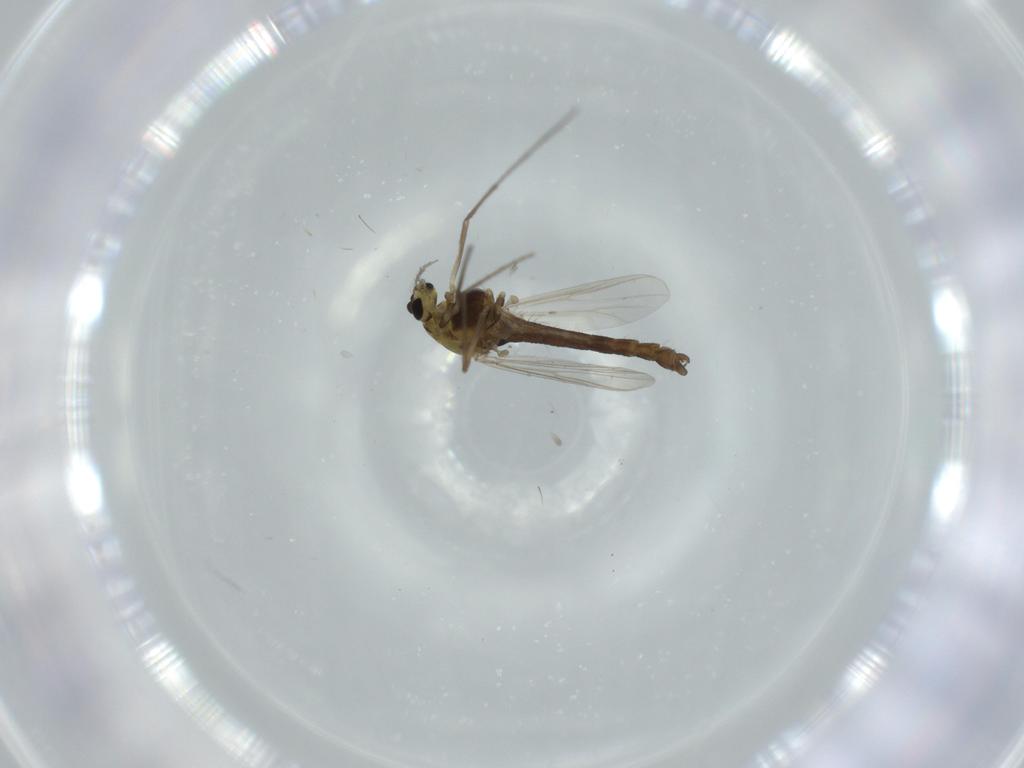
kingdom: Animalia
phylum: Arthropoda
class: Insecta
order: Diptera
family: Chironomidae
